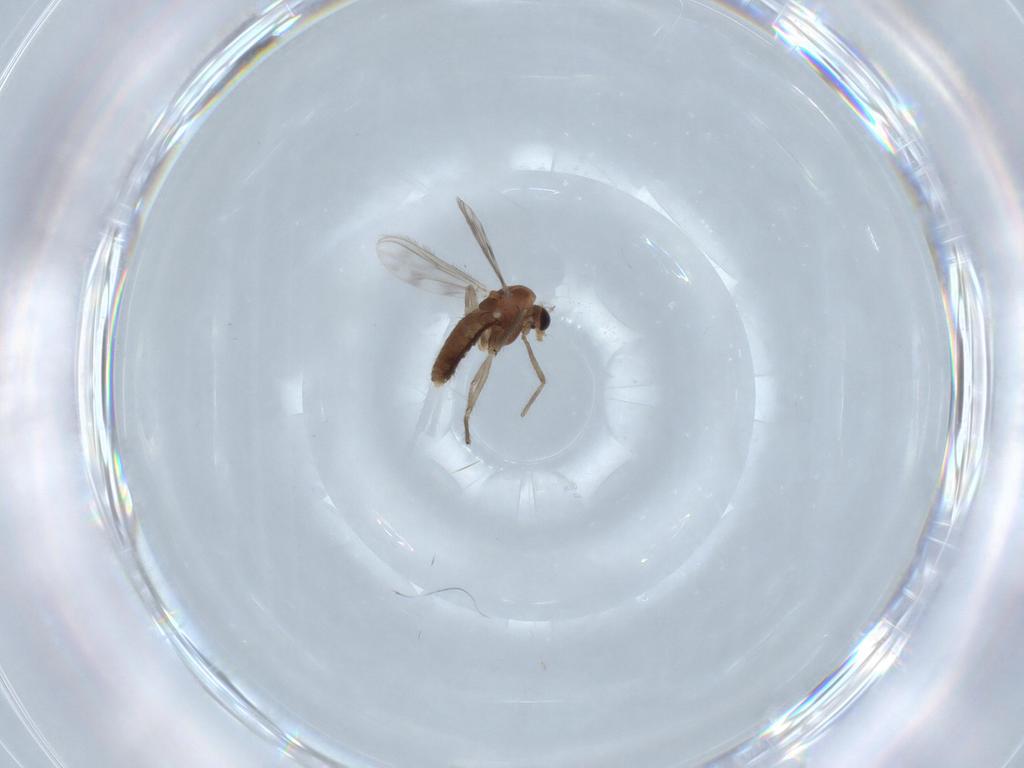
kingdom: Animalia
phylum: Arthropoda
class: Insecta
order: Diptera
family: Chironomidae
